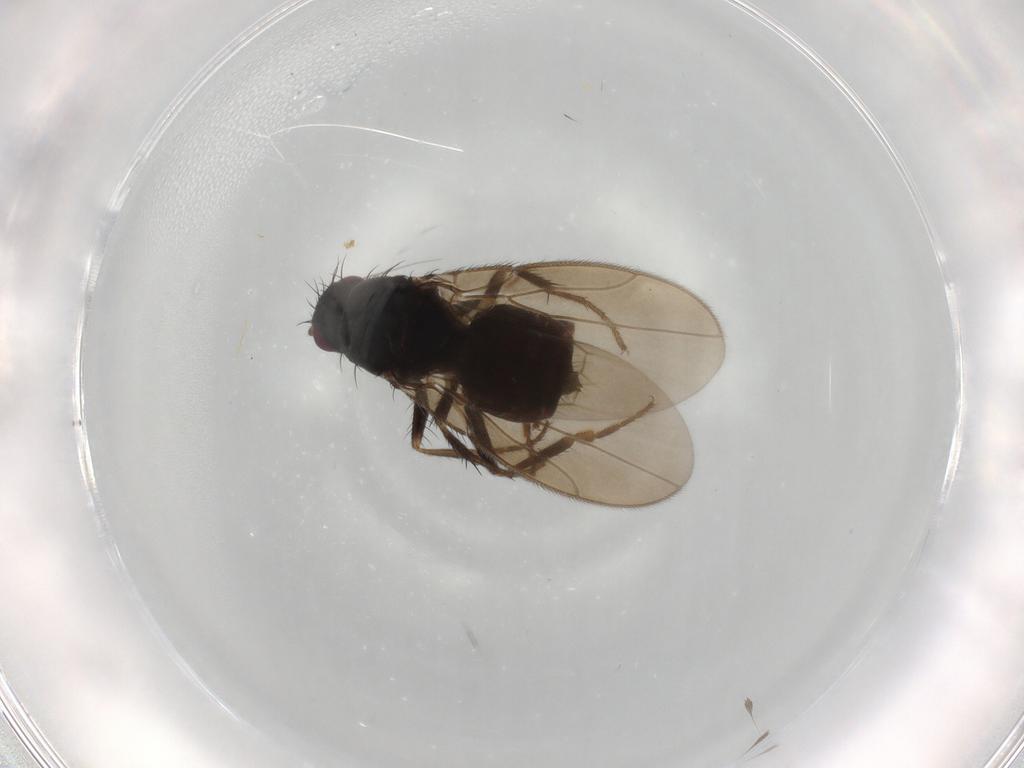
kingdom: Animalia
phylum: Arthropoda
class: Insecta
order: Diptera
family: Sphaeroceridae
